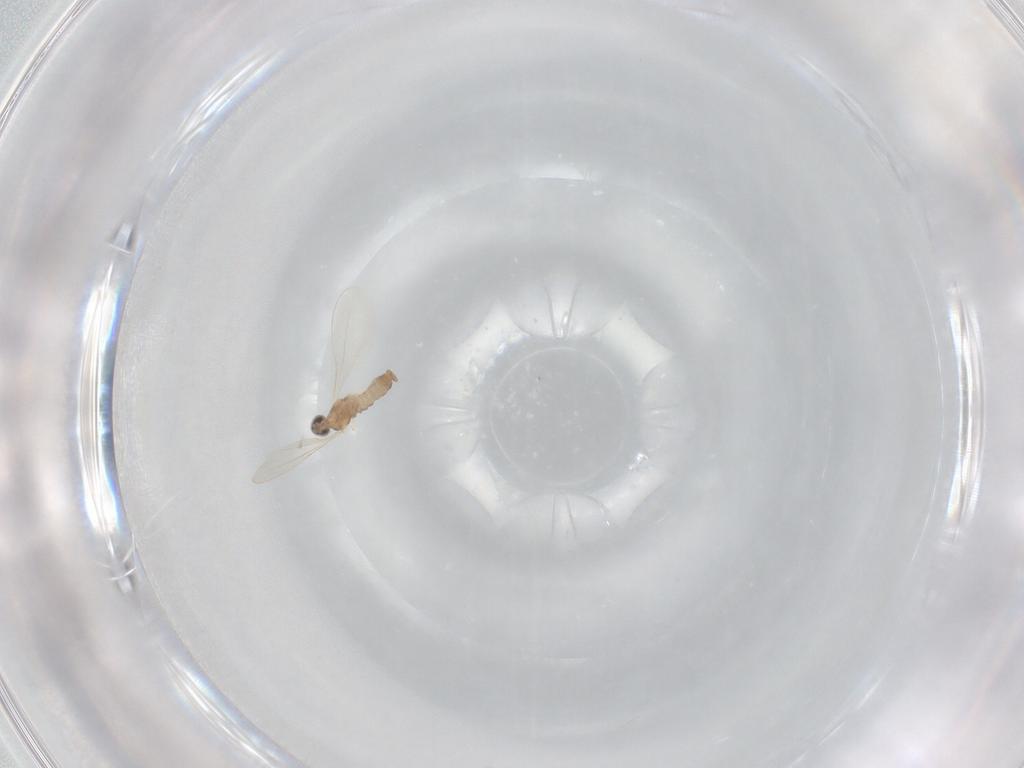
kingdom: Animalia
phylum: Arthropoda
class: Insecta
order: Diptera
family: Cecidomyiidae
